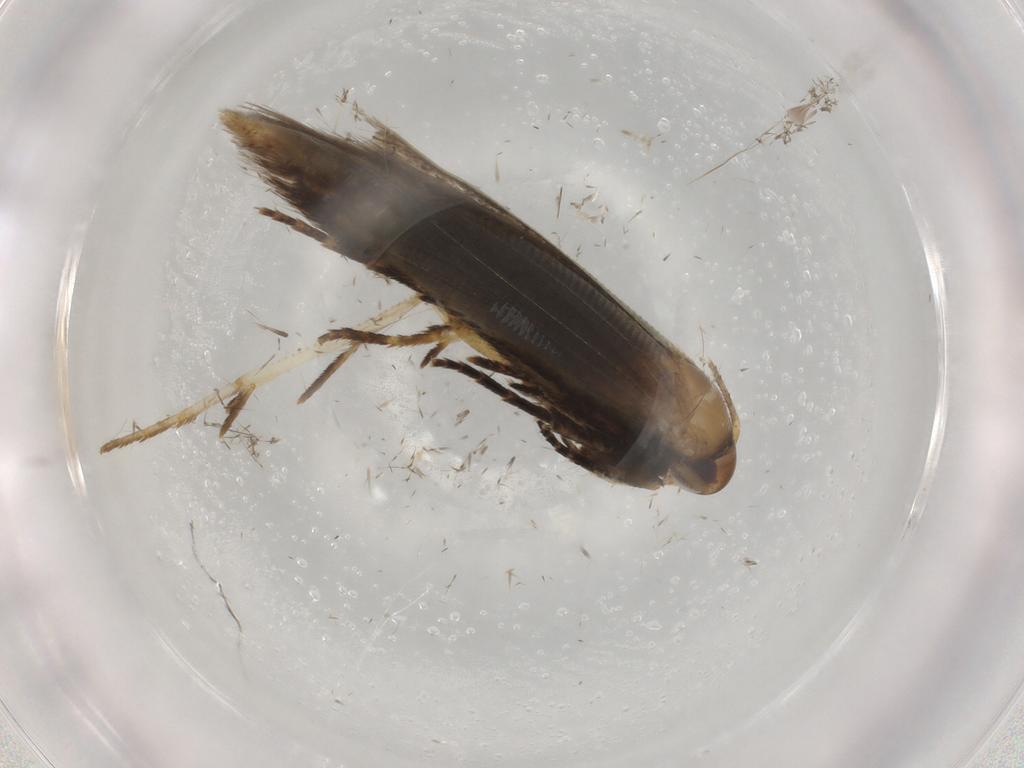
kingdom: Animalia
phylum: Arthropoda
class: Insecta
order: Lepidoptera
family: Cosmopterigidae
